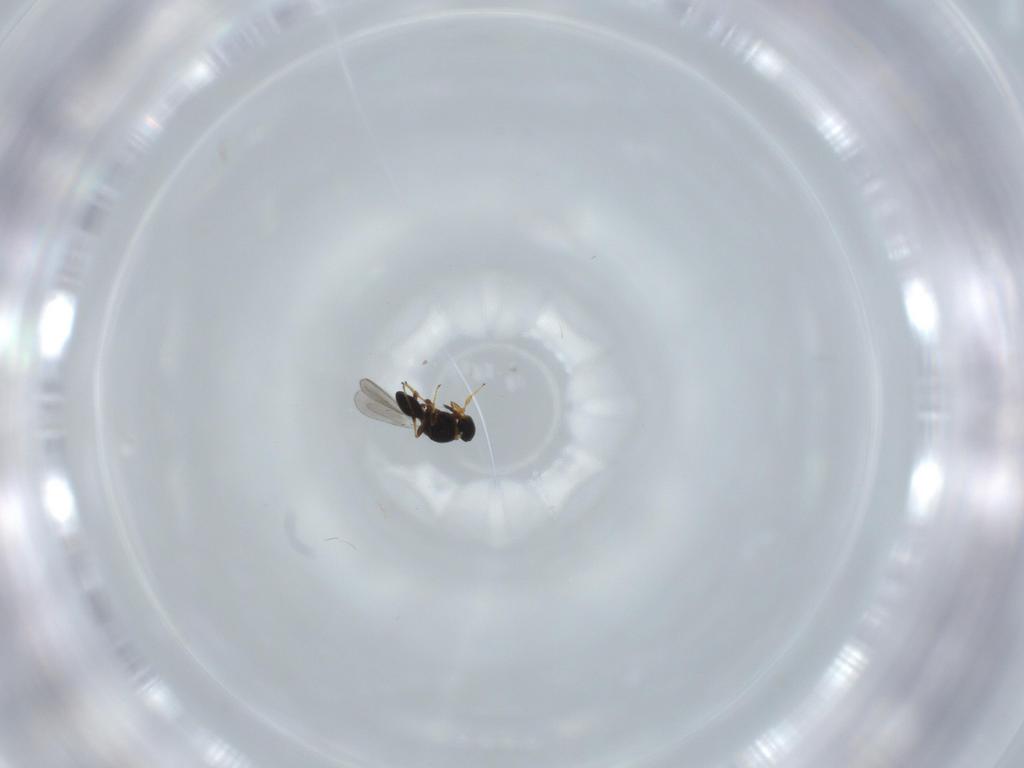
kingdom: Animalia
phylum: Arthropoda
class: Insecta
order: Hymenoptera
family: Platygastridae
